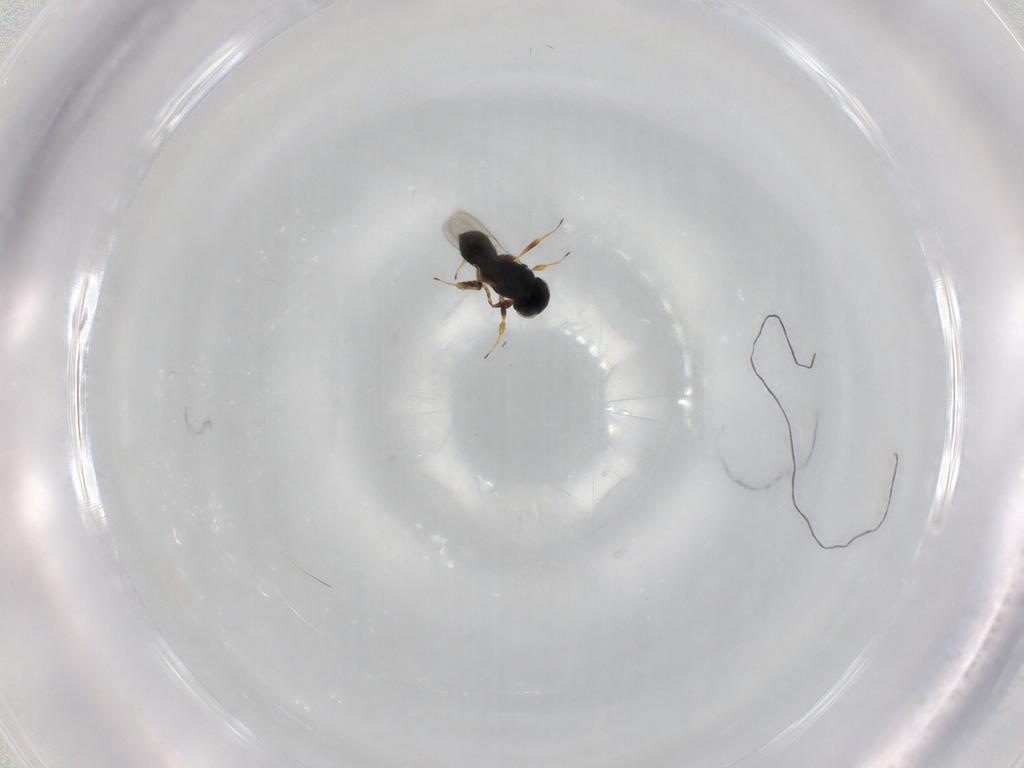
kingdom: Animalia
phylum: Arthropoda
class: Insecta
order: Hymenoptera
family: Scelionidae
